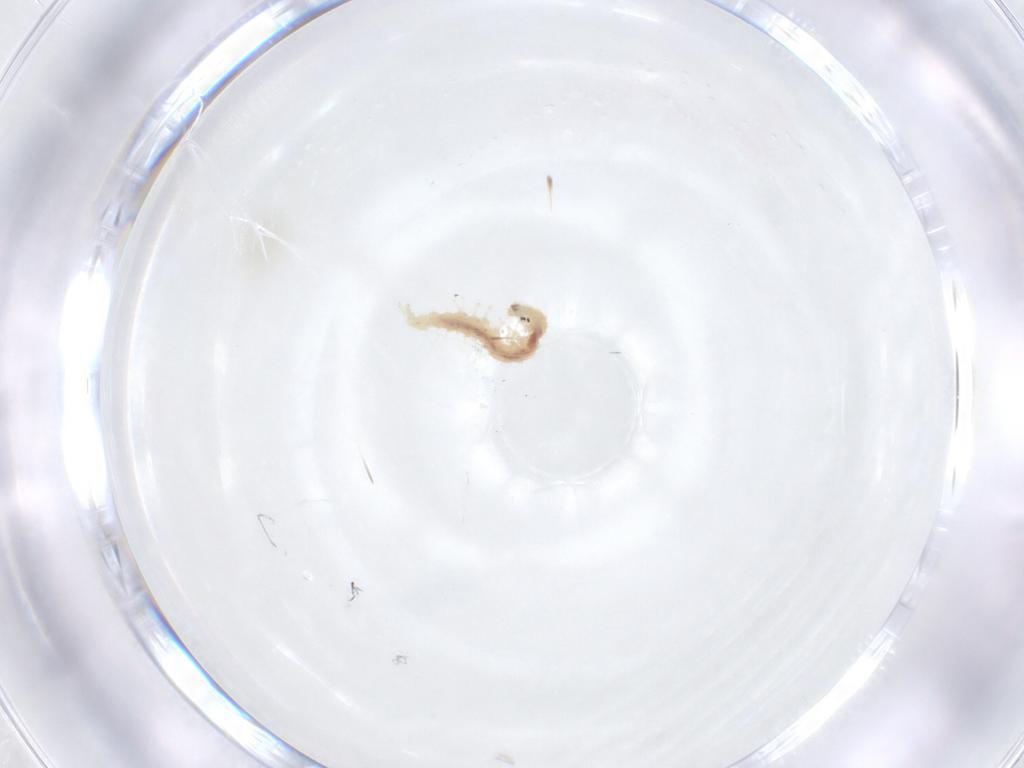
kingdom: Animalia
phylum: Arthropoda
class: Insecta
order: Lepidoptera
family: Crambidae
